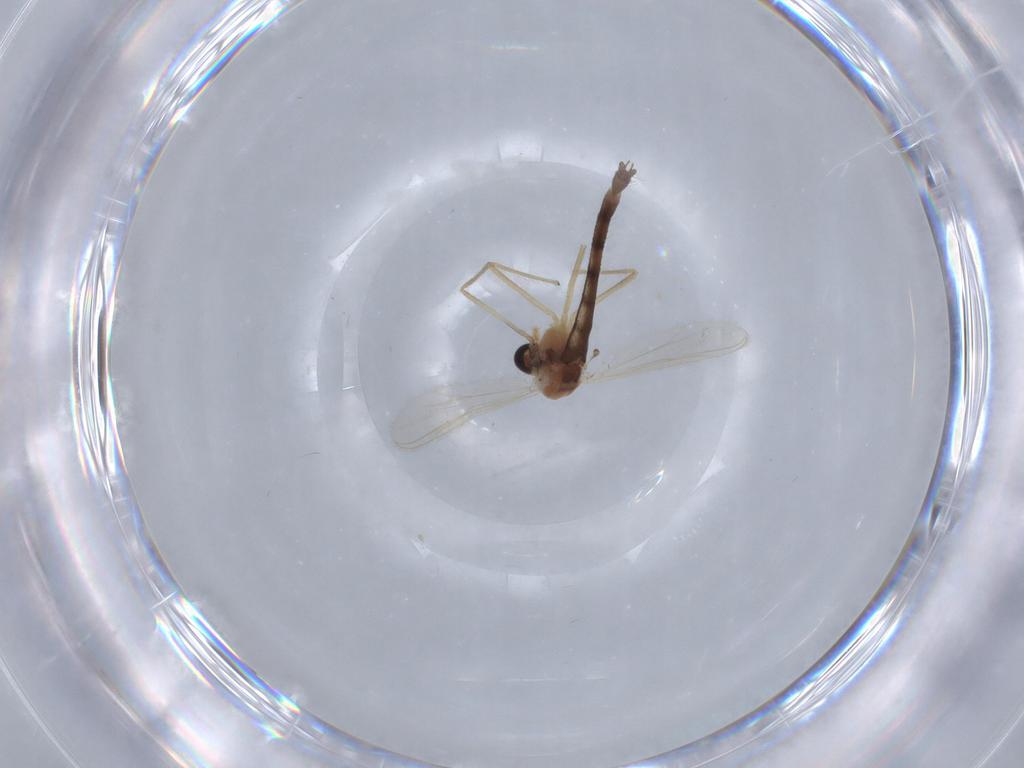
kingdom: Animalia
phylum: Arthropoda
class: Insecta
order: Diptera
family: Chironomidae
